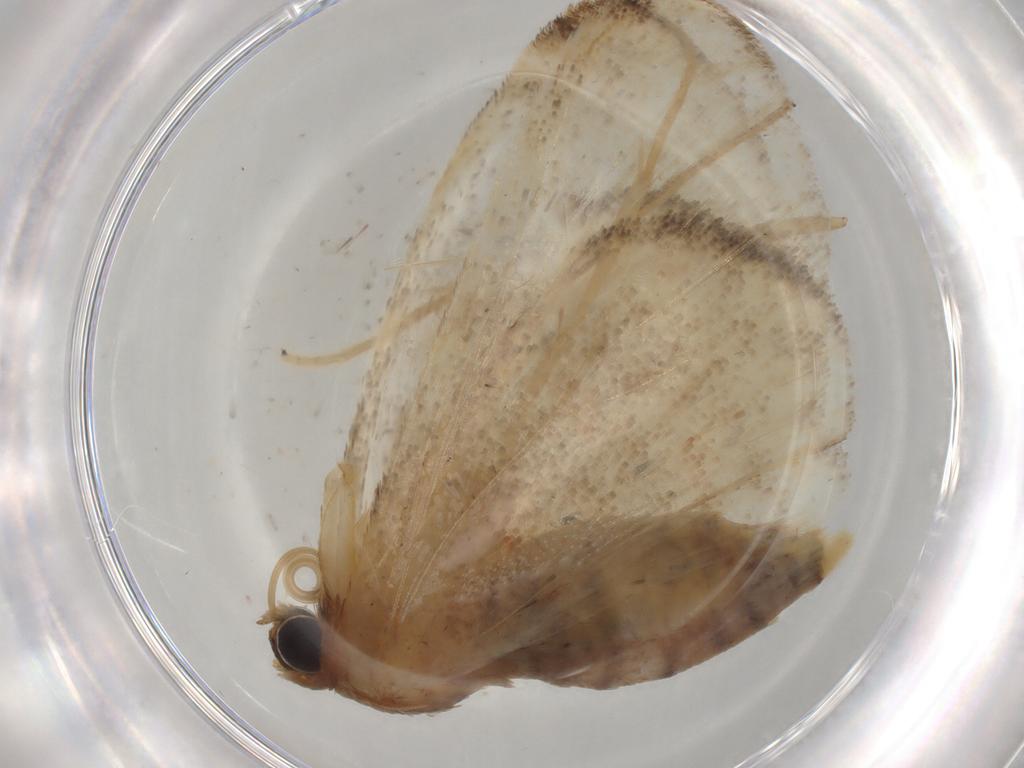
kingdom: Animalia
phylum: Arthropoda
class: Insecta
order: Lepidoptera
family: Geometridae
